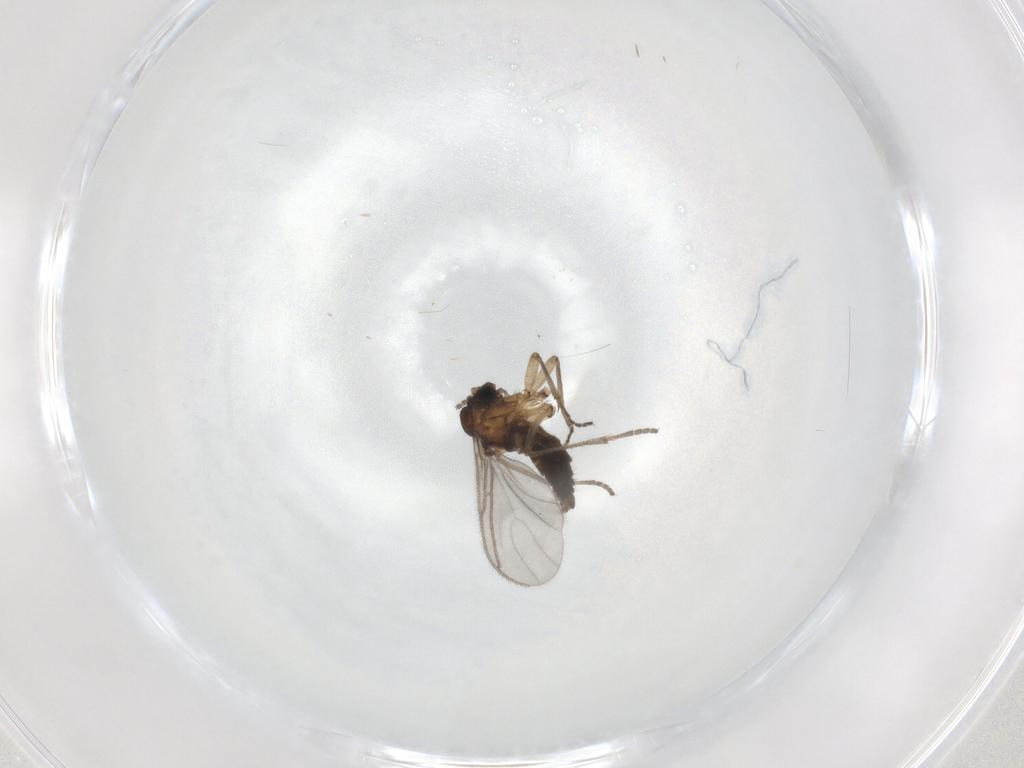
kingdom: Animalia
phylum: Arthropoda
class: Insecta
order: Diptera
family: Sciaridae
